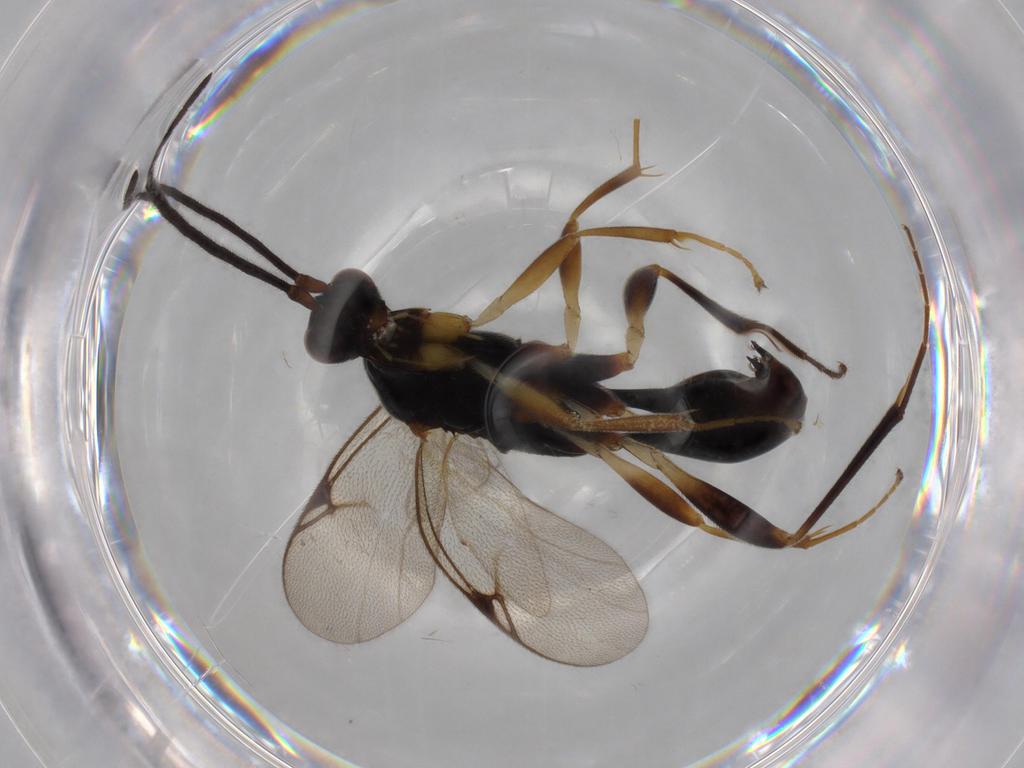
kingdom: Animalia
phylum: Arthropoda
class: Insecta
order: Hymenoptera
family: Proctotrupidae
